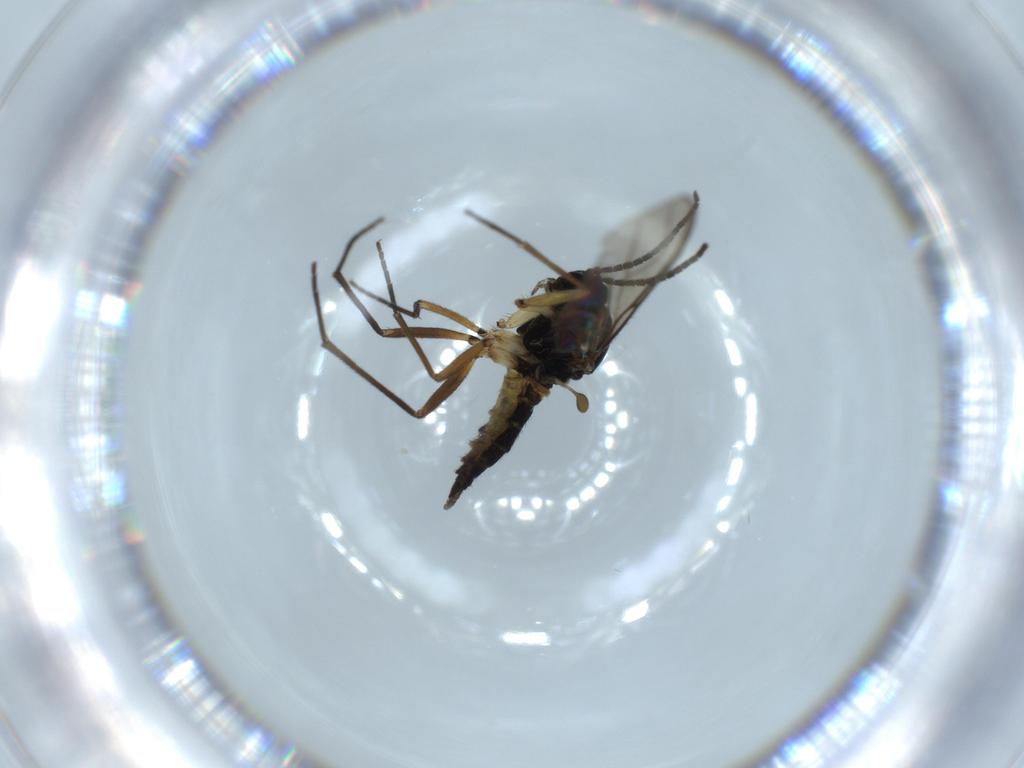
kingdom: Animalia
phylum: Arthropoda
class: Insecta
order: Diptera
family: Sciaridae
